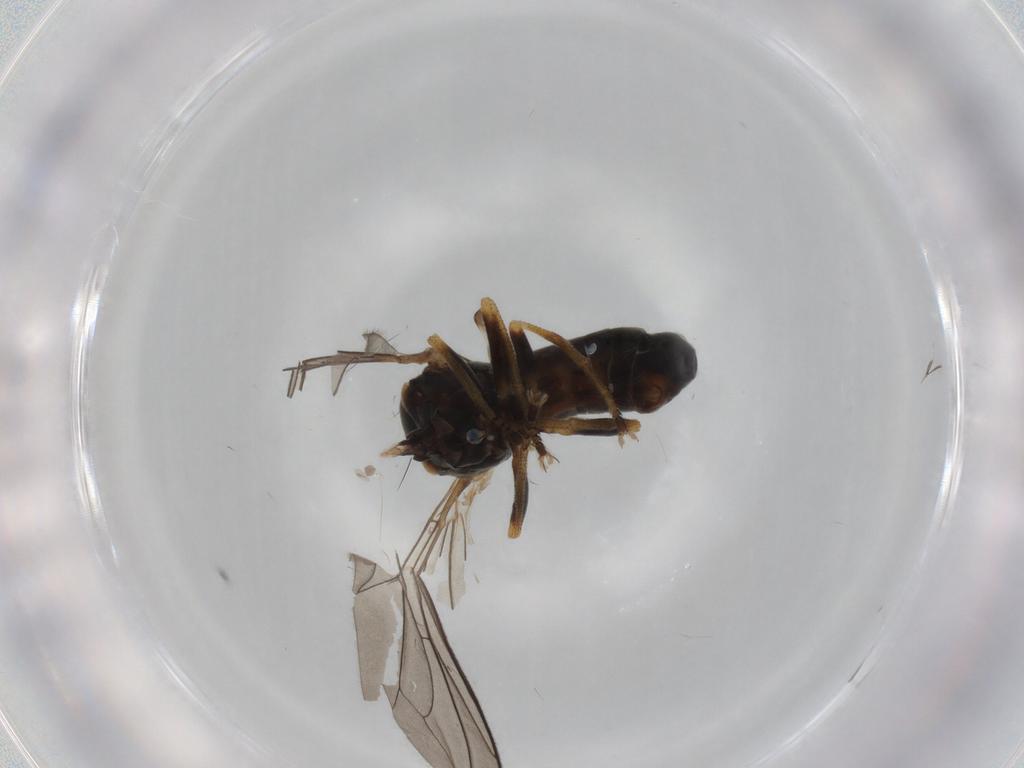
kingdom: Animalia
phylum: Arthropoda
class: Insecta
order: Diptera
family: Pipunculidae
